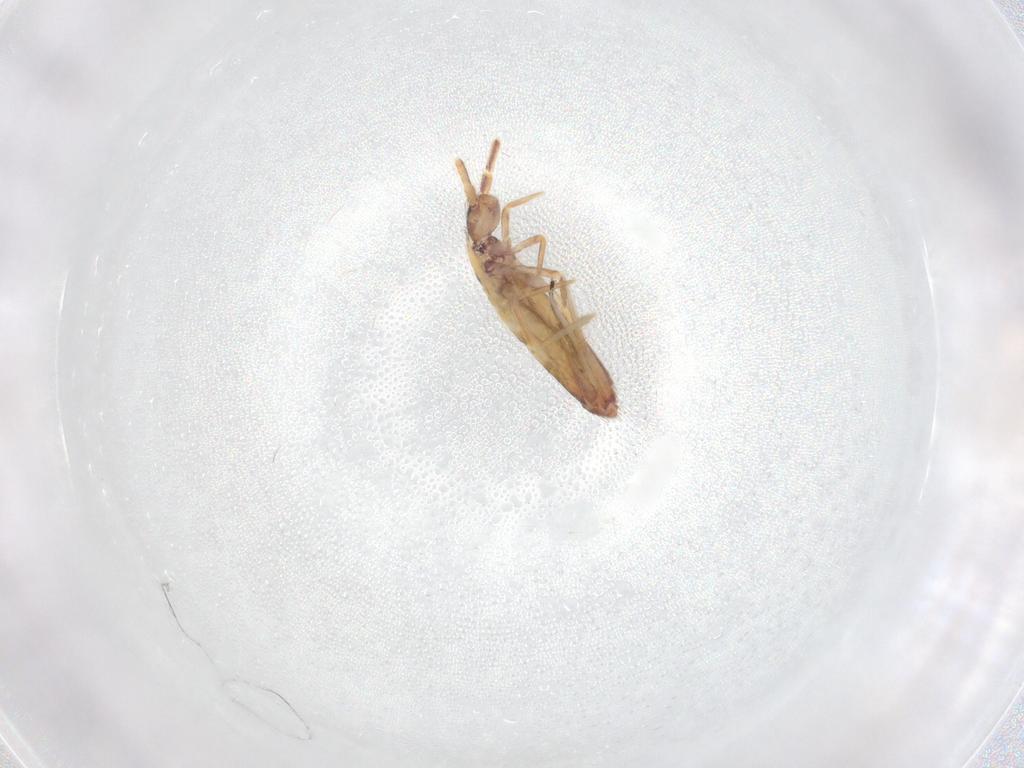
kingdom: Animalia
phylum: Arthropoda
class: Collembola
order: Entomobryomorpha
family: Entomobryidae
